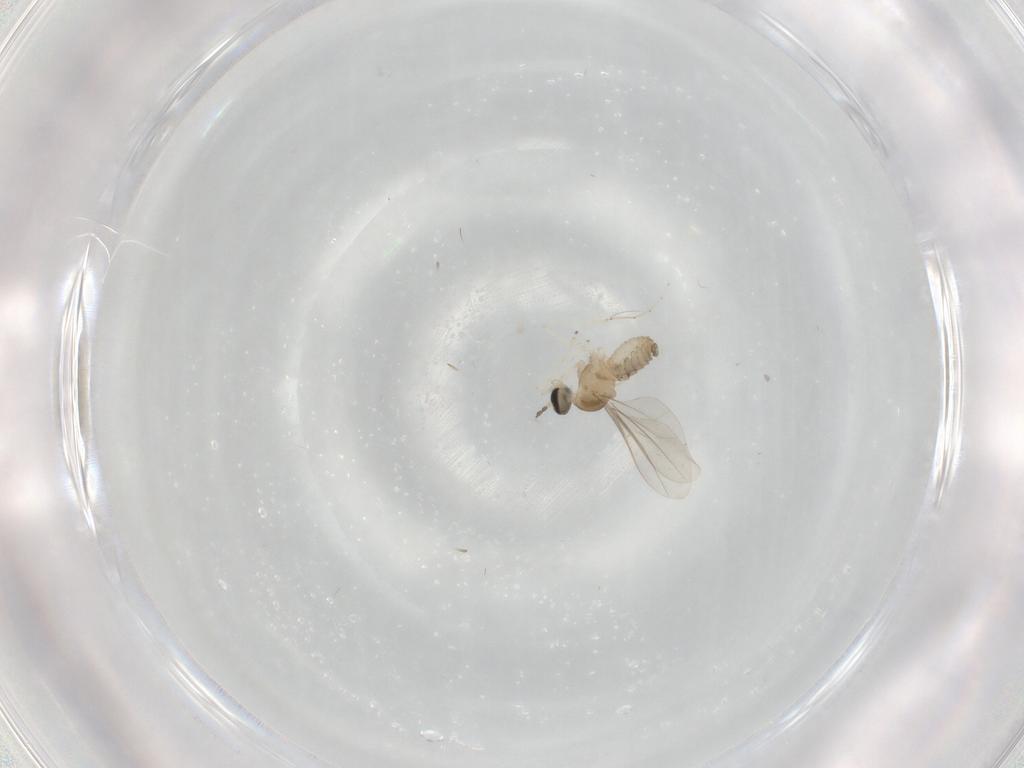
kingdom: Animalia
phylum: Arthropoda
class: Insecta
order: Diptera
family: Cecidomyiidae
